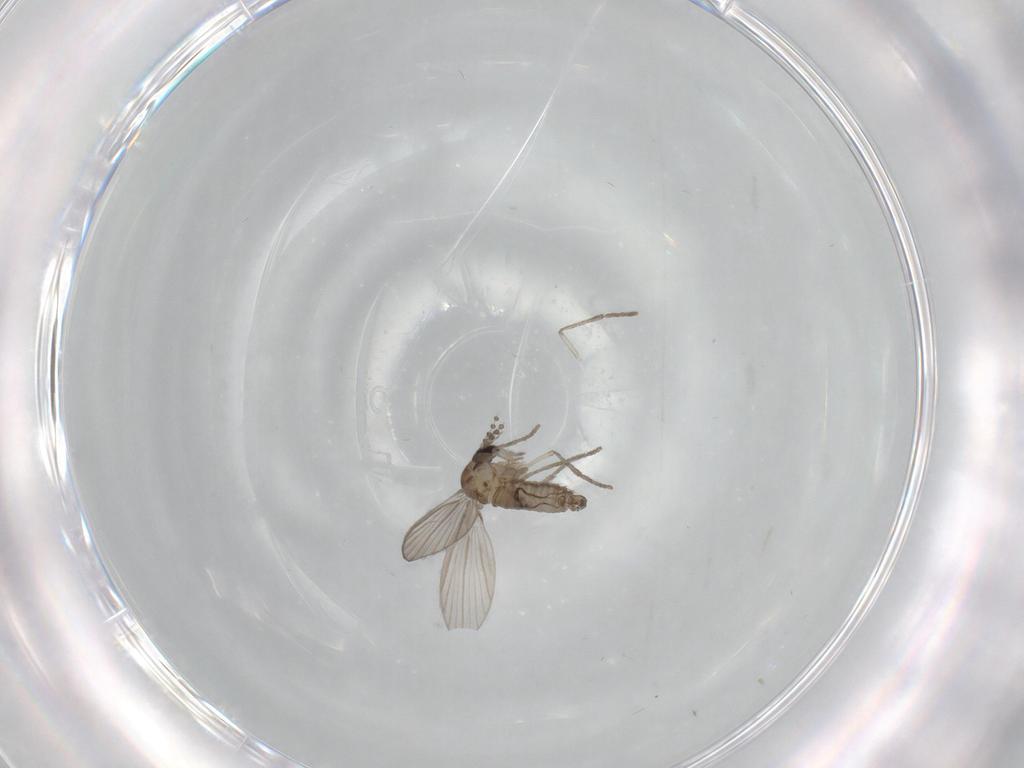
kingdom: Animalia
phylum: Arthropoda
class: Insecta
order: Diptera
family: Psychodidae
